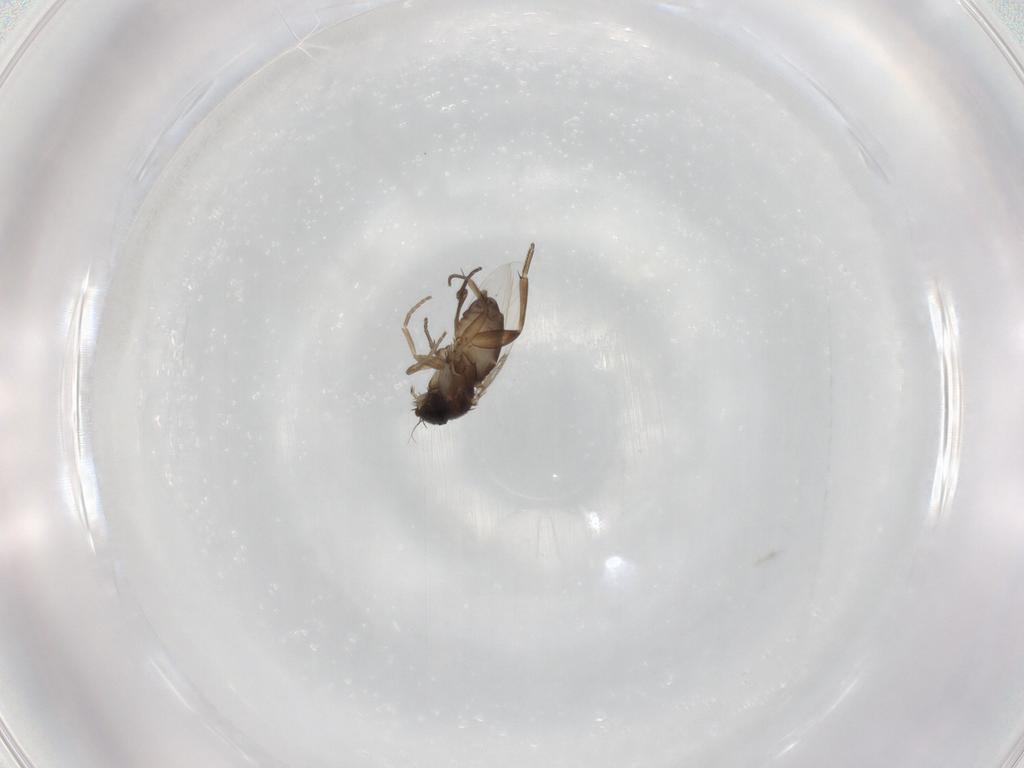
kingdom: Animalia
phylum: Arthropoda
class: Insecta
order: Diptera
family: Phoridae
